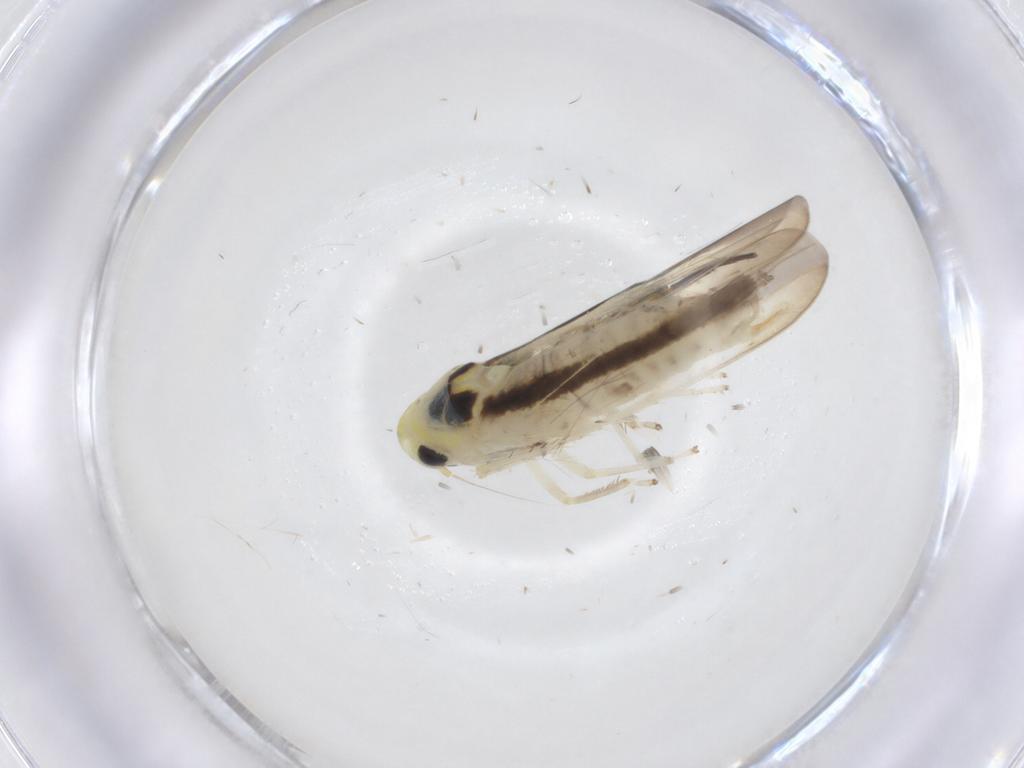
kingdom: Animalia
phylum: Arthropoda
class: Insecta
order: Hemiptera
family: Cicadellidae
